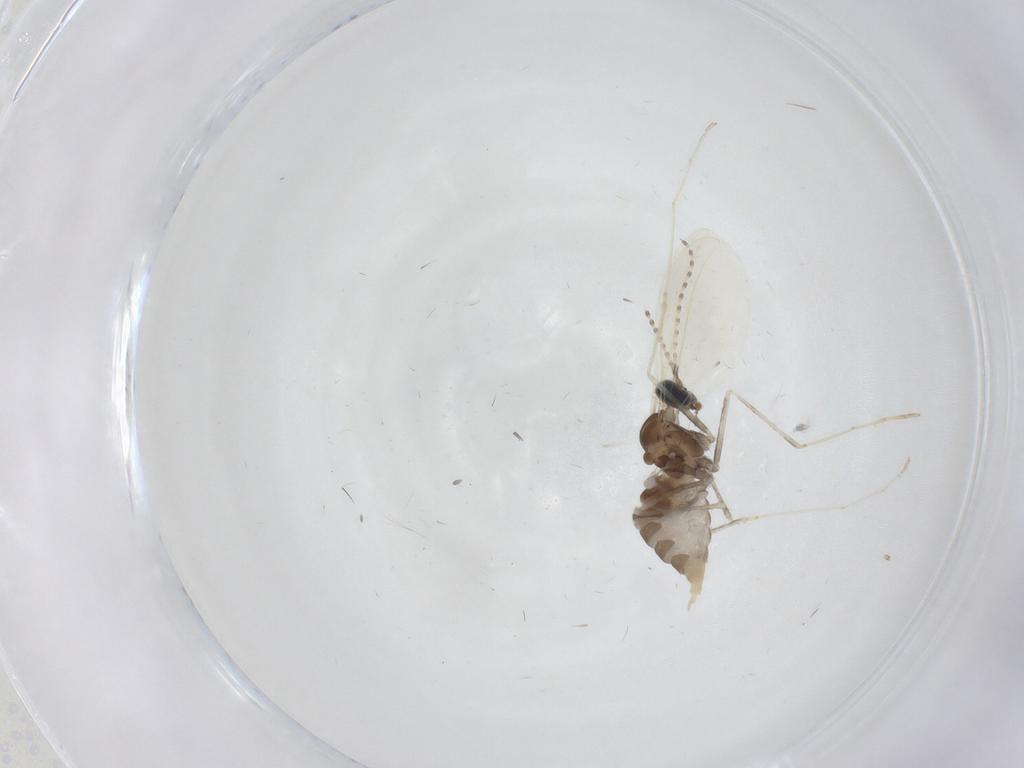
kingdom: Animalia
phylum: Arthropoda
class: Insecta
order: Diptera
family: Cecidomyiidae
